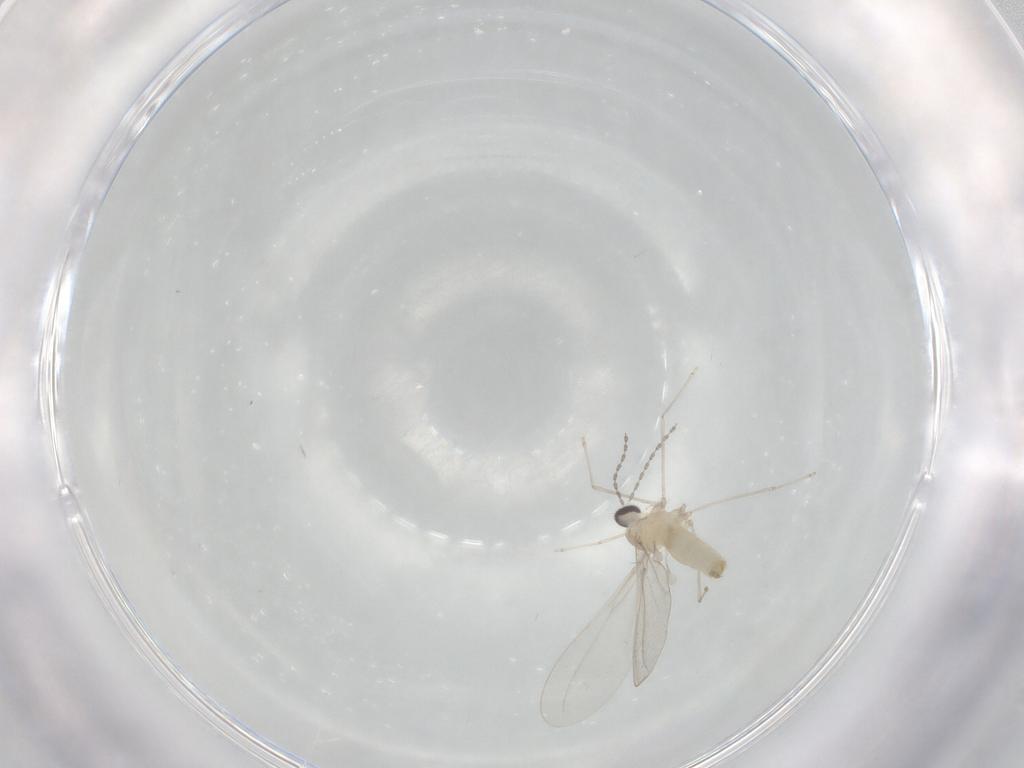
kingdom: Animalia
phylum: Arthropoda
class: Insecta
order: Diptera
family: Cecidomyiidae
